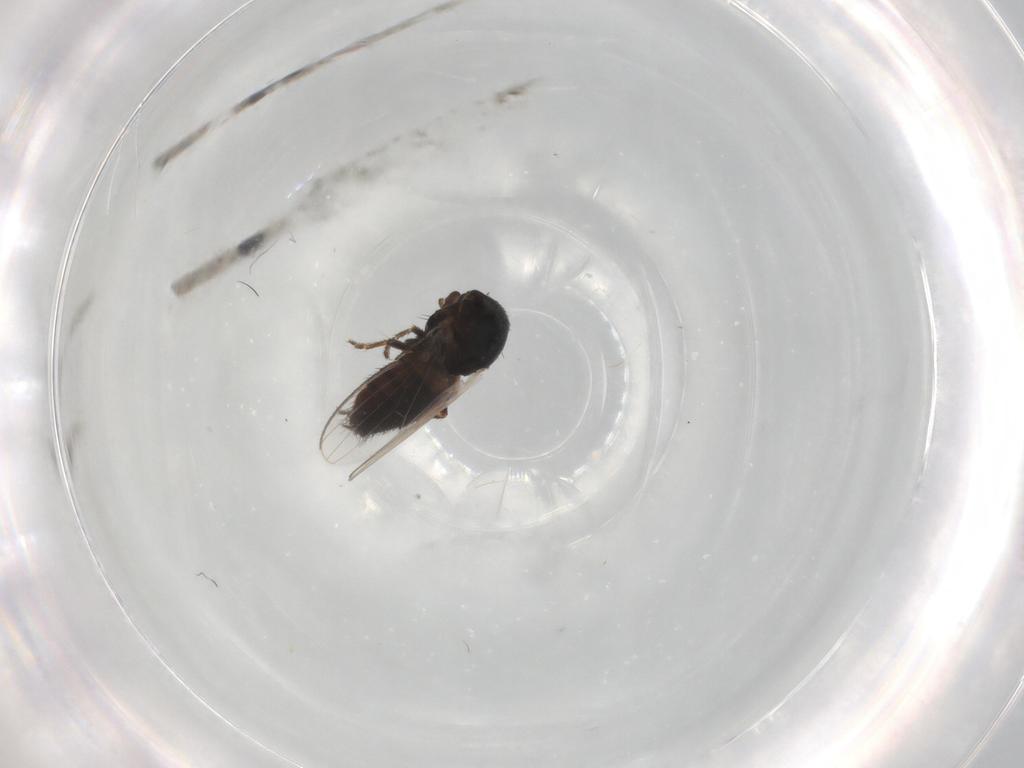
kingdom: Animalia
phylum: Arthropoda
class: Insecta
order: Diptera
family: Milichiidae
